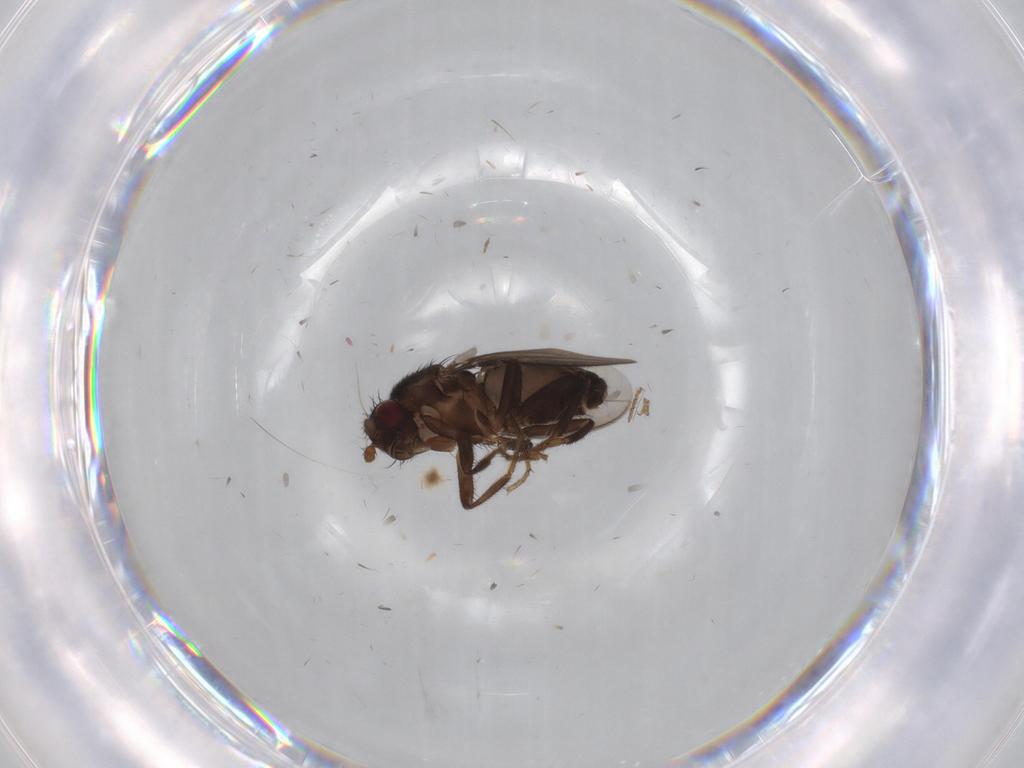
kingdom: Animalia
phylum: Arthropoda
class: Insecta
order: Diptera
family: Sphaeroceridae
